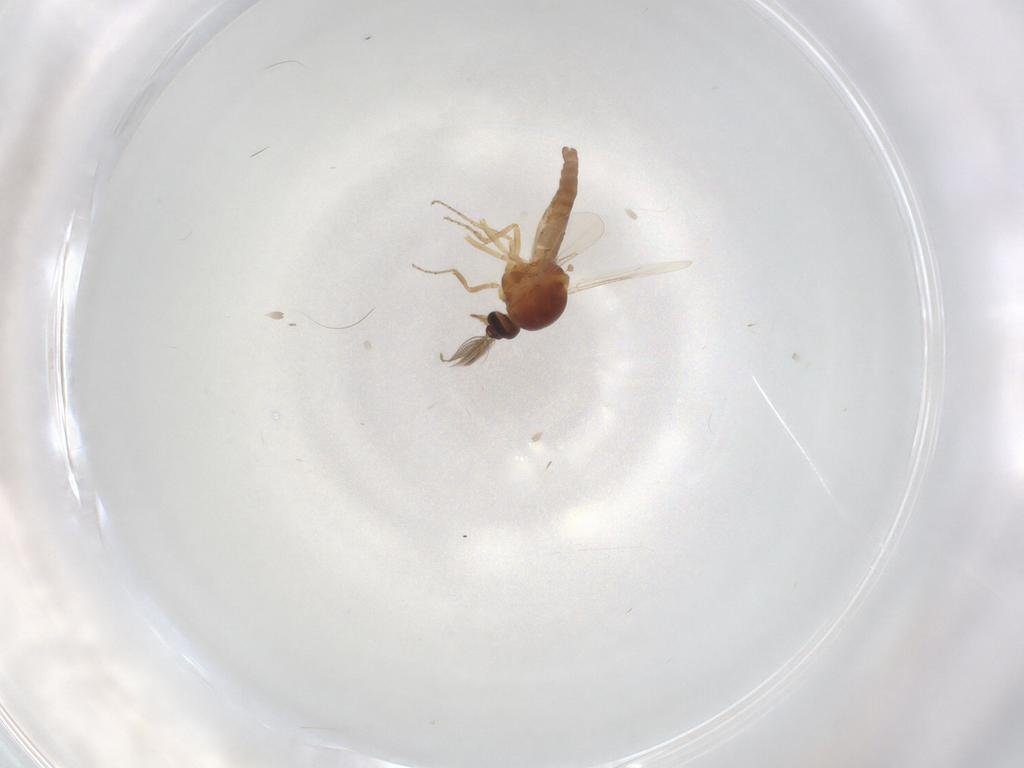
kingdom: Animalia
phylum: Arthropoda
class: Insecta
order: Diptera
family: Ceratopogonidae
